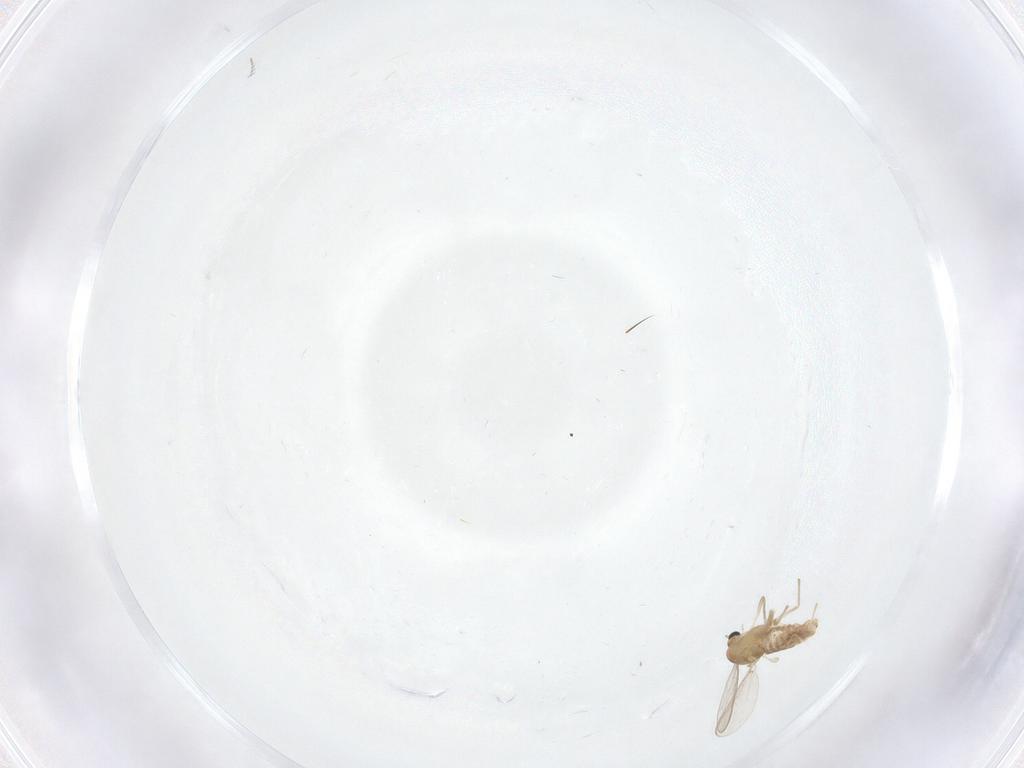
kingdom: Animalia
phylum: Arthropoda
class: Insecta
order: Diptera
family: Chironomidae
